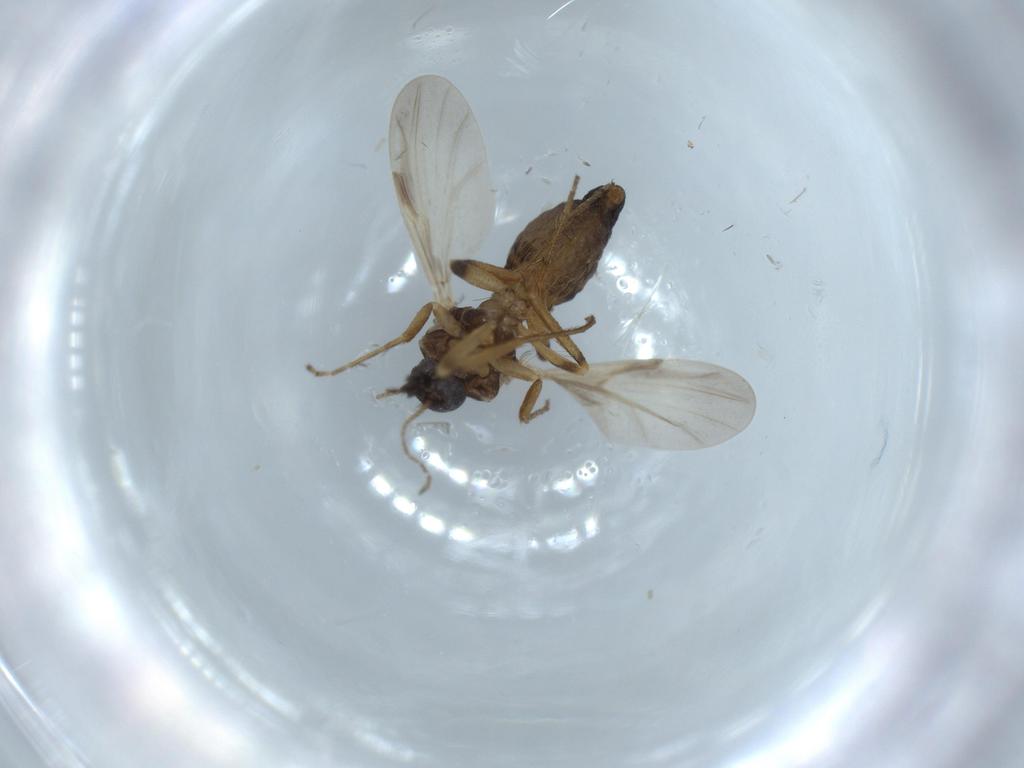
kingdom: Animalia
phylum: Arthropoda
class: Insecta
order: Diptera
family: Ceratopogonidae
